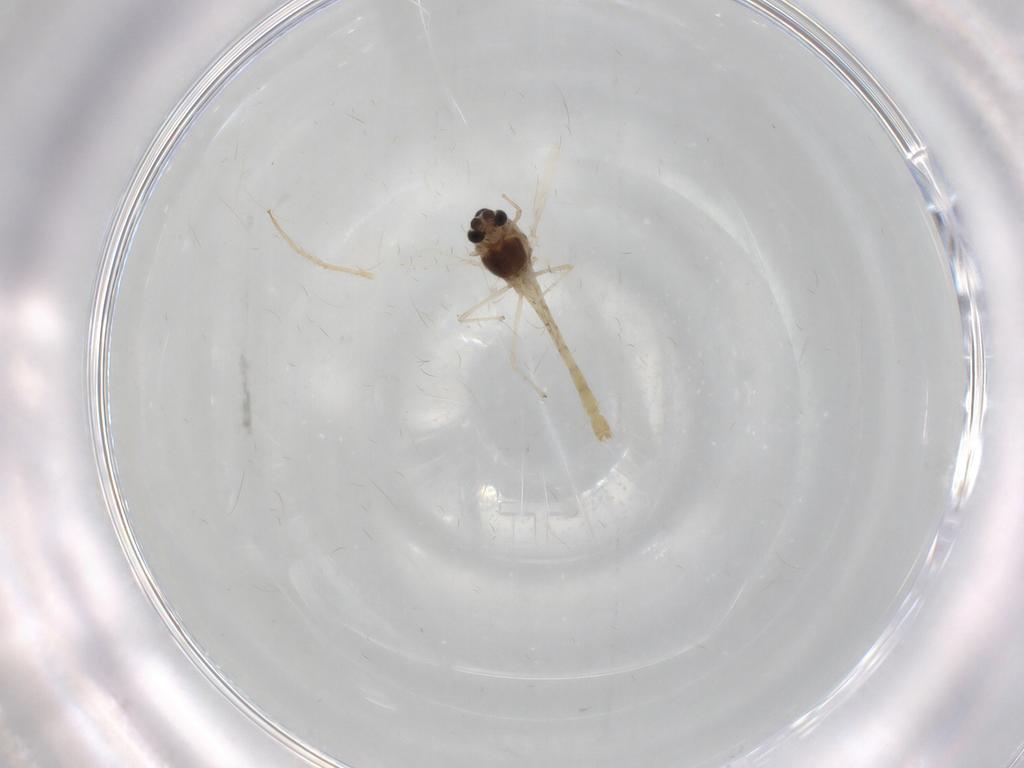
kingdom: Animalia
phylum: Arthropoda
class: Insecta
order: Diptera
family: Chironomidae
